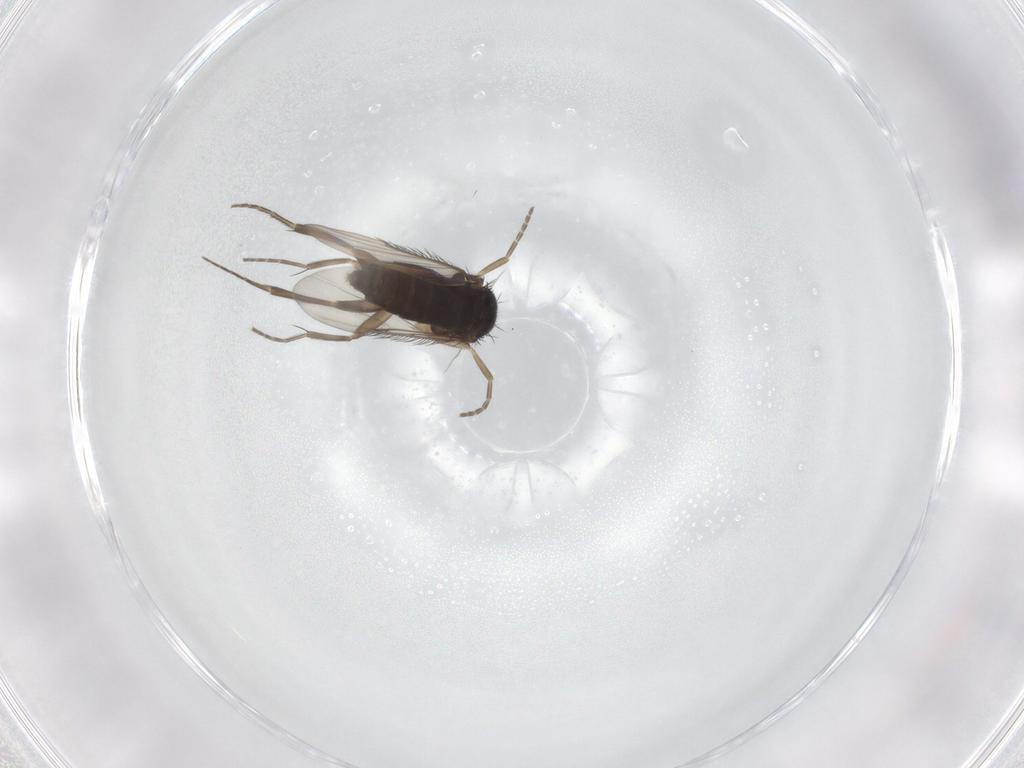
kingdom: Animalia
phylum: Arthropoda
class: Insecta
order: Diptera
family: Phoridae
